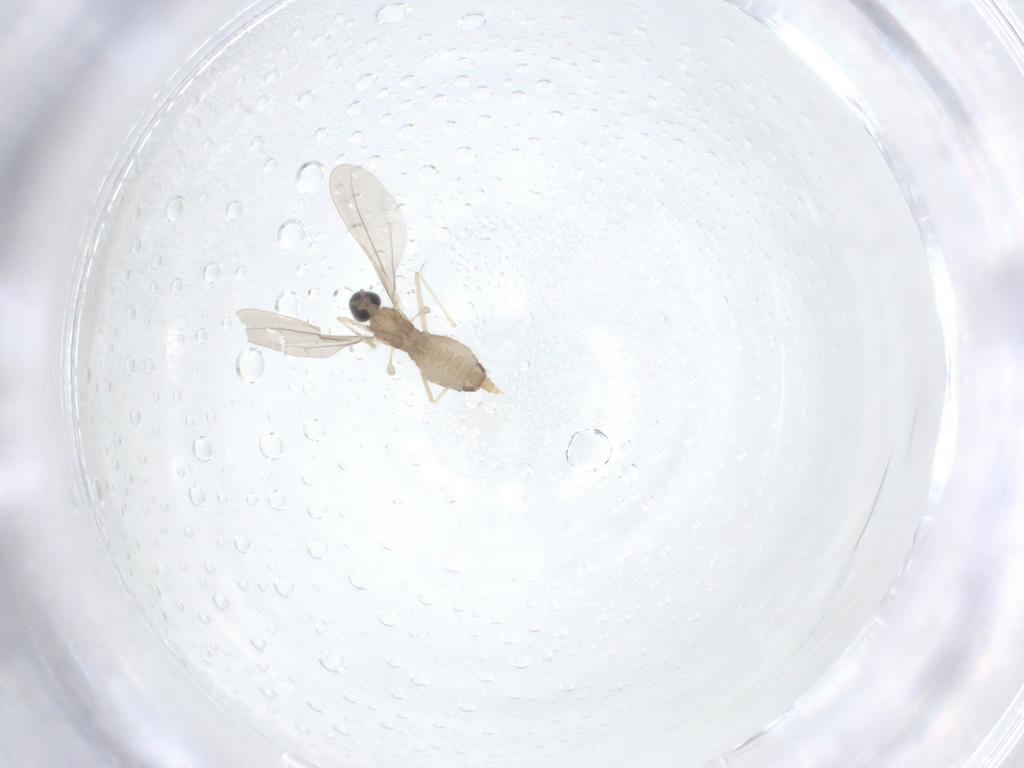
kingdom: Animalia
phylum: Arthropoda
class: Insecta
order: Diptera
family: Cecidomyiidae
